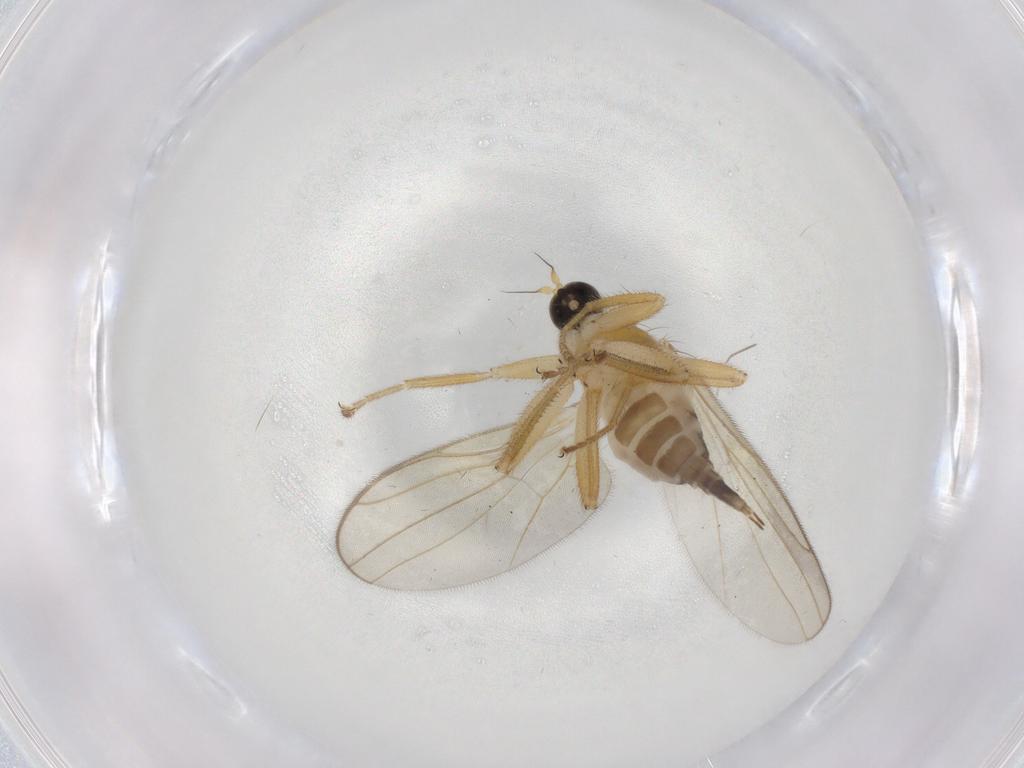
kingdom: Animalia
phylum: Arthropoda
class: Insecta
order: Diptera
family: Hybotidae
